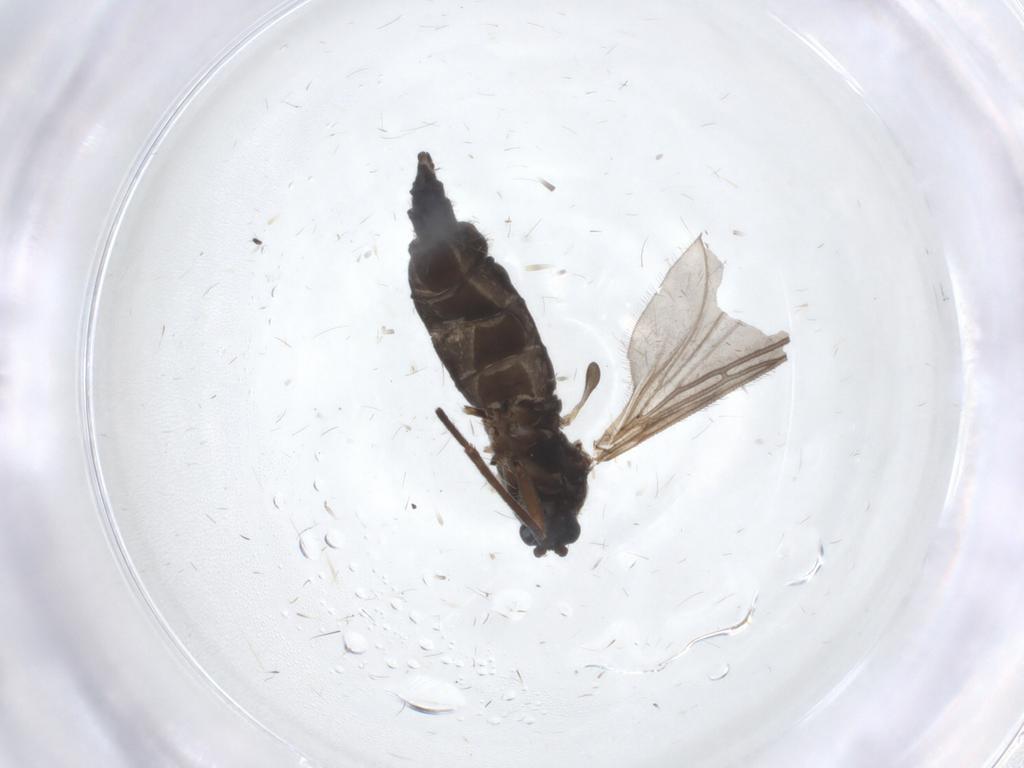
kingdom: Animalia
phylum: Arthropoda
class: Insecta
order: Diptera
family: Sciaridae
